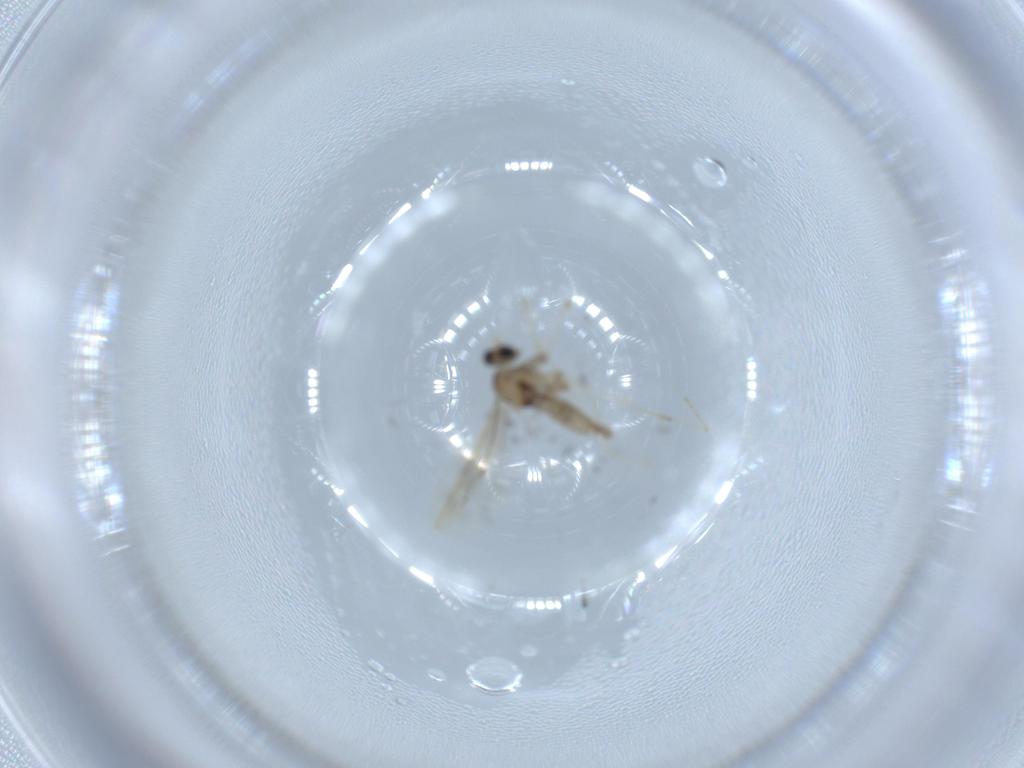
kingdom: Animalia
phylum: Arthropoda
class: Insecta
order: Diptera
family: Cecidomyiidae
